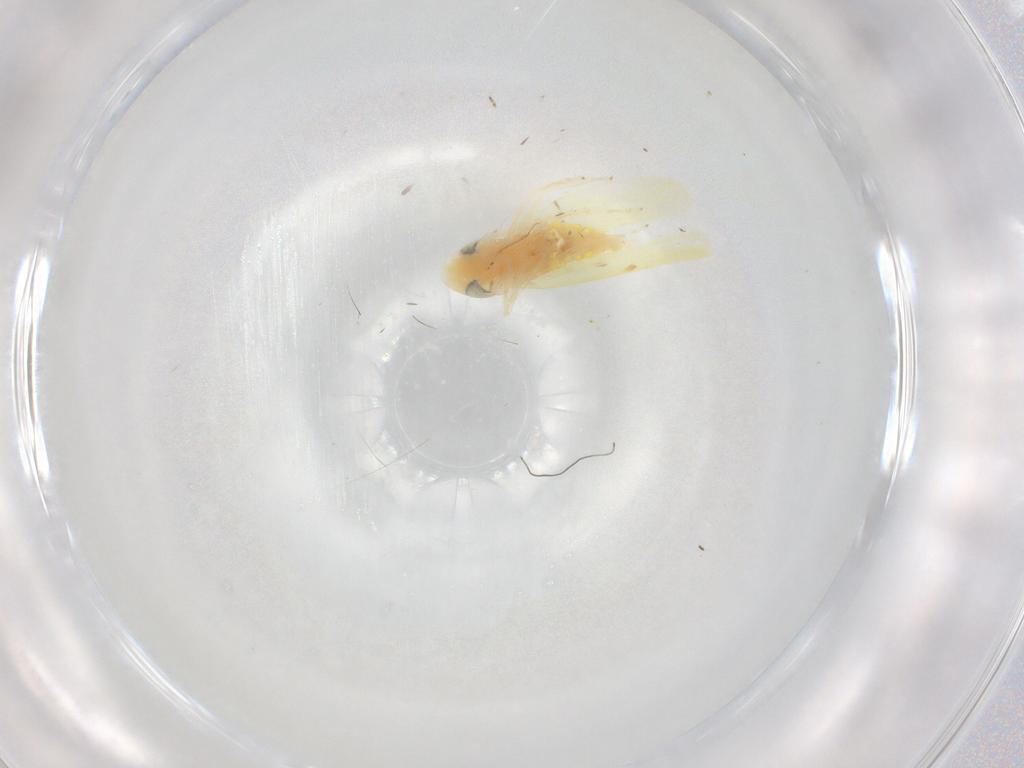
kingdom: Animalia
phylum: Arthropoda
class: Insecta
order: Hemiptera
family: Cicadellidae
